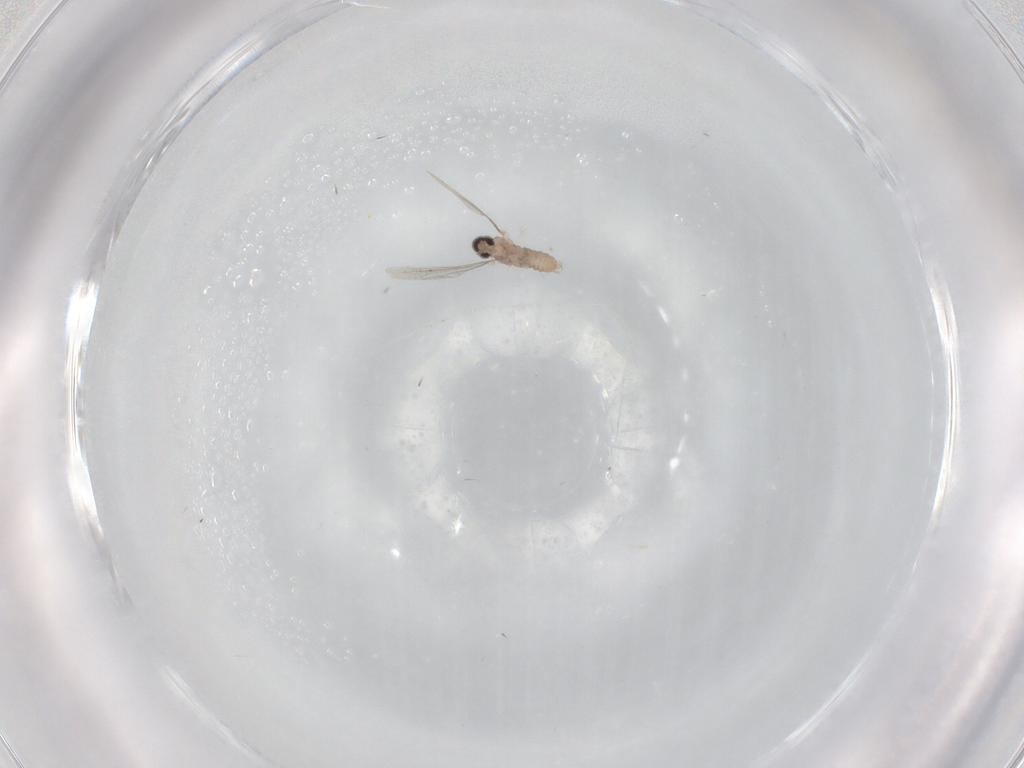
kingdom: Animalia
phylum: Arthropoda
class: Insecta
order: Diptera
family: Cecidomyiidae
